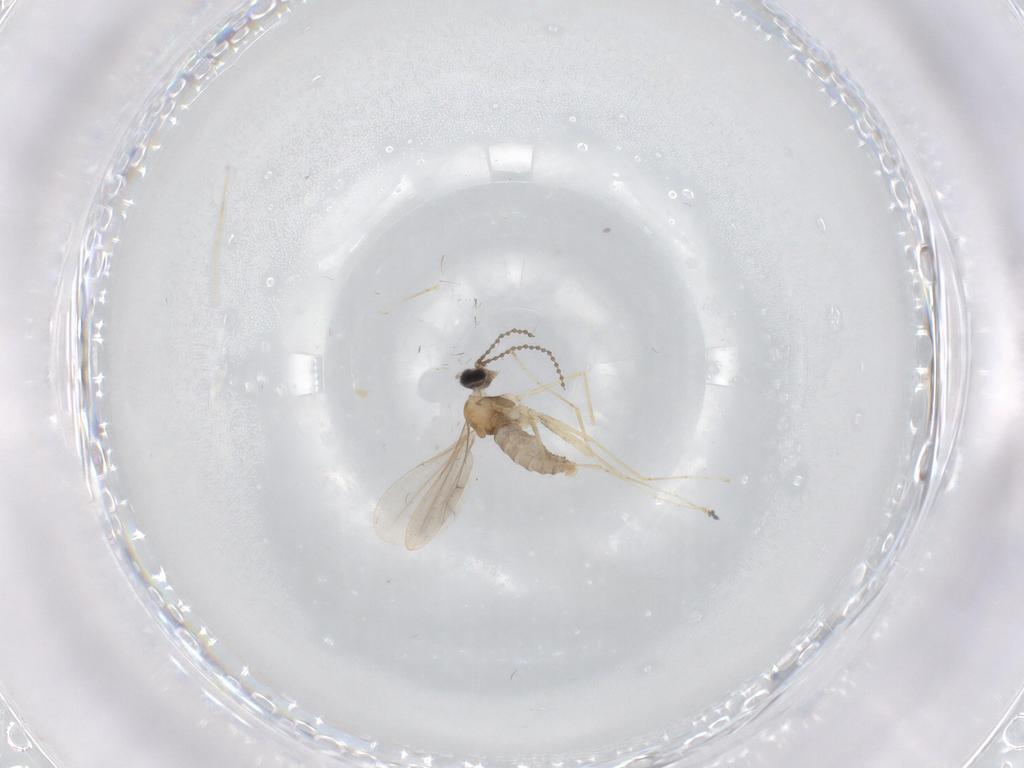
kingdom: Animalia
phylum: Arthropoda
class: Insecta
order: Diptera
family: Cecidomyiidae
